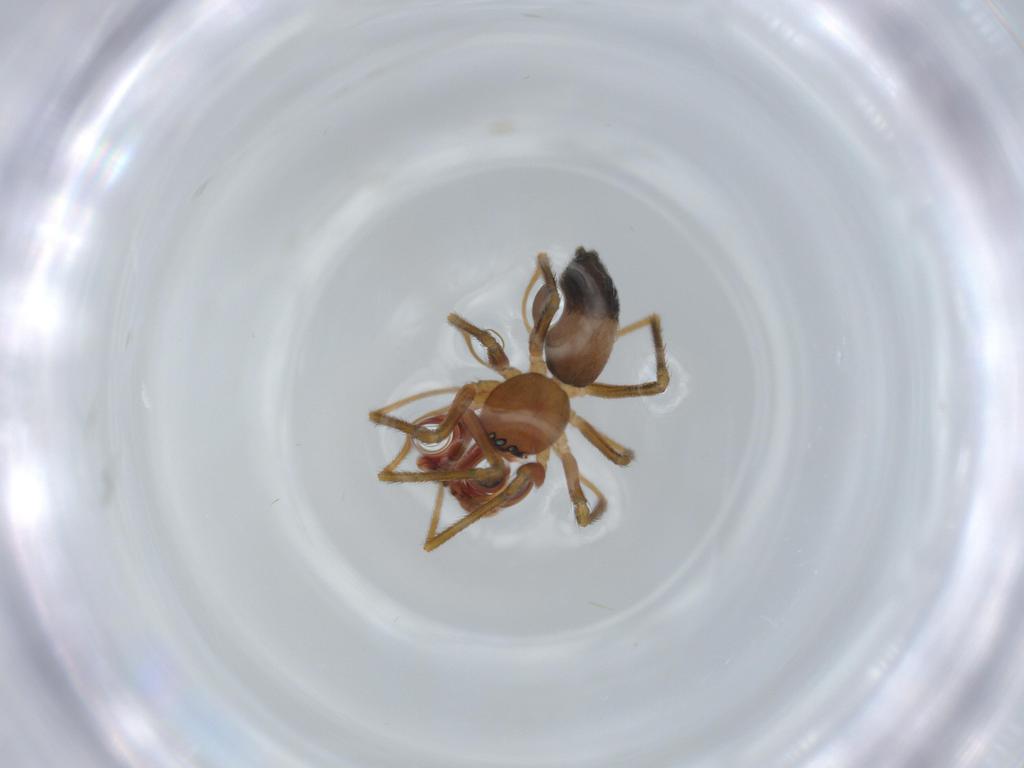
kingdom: Animalia
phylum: Arthropoda
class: Arachnida
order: Araneae
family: Linyphiidae
